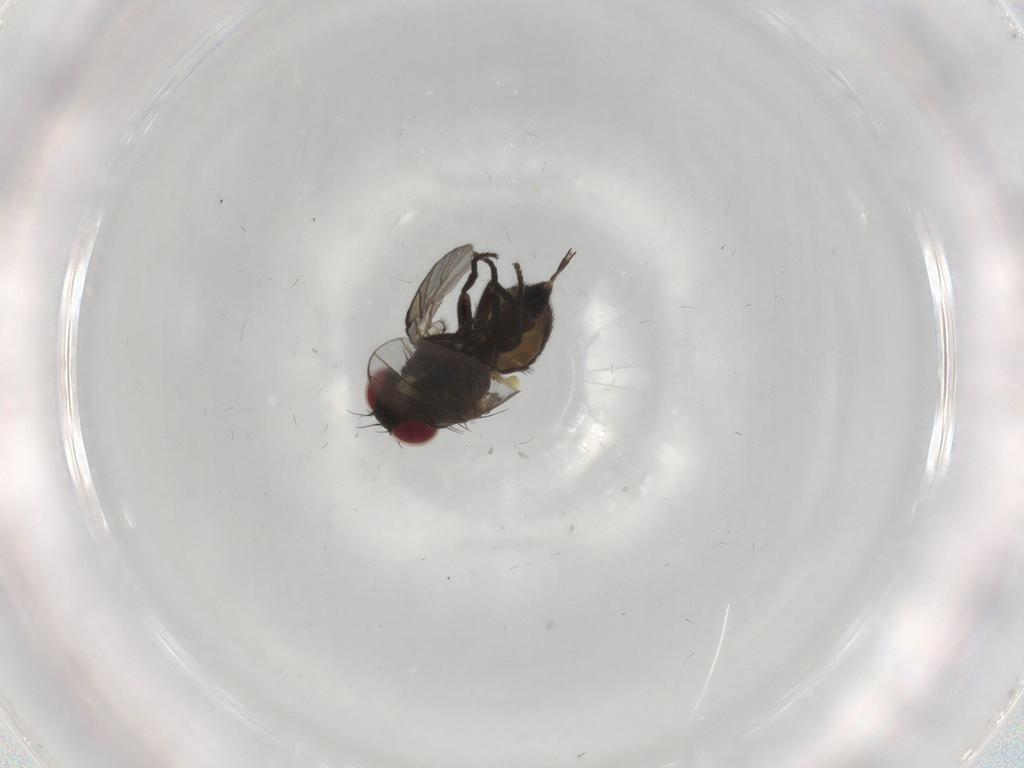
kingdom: Animalia
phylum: Arthropoda
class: Insecta
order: Diptera
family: Agromyzidae
